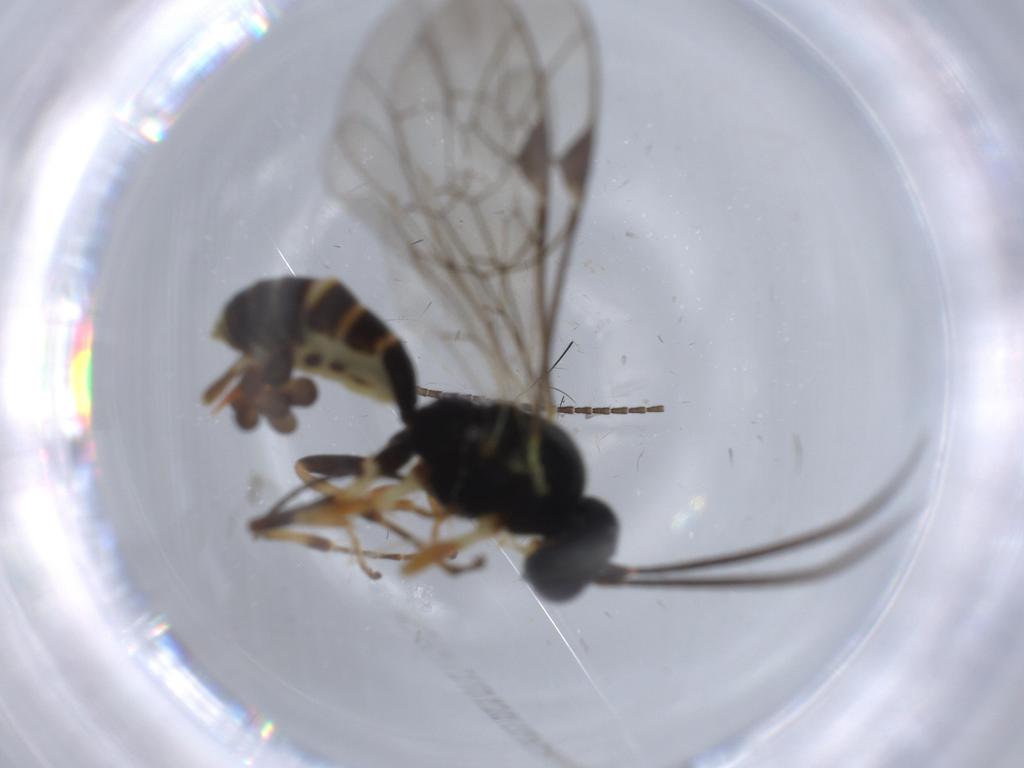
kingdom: Animalia
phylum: Arthropoda
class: Insecta
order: Hymenoptera
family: Ichneumonidae
